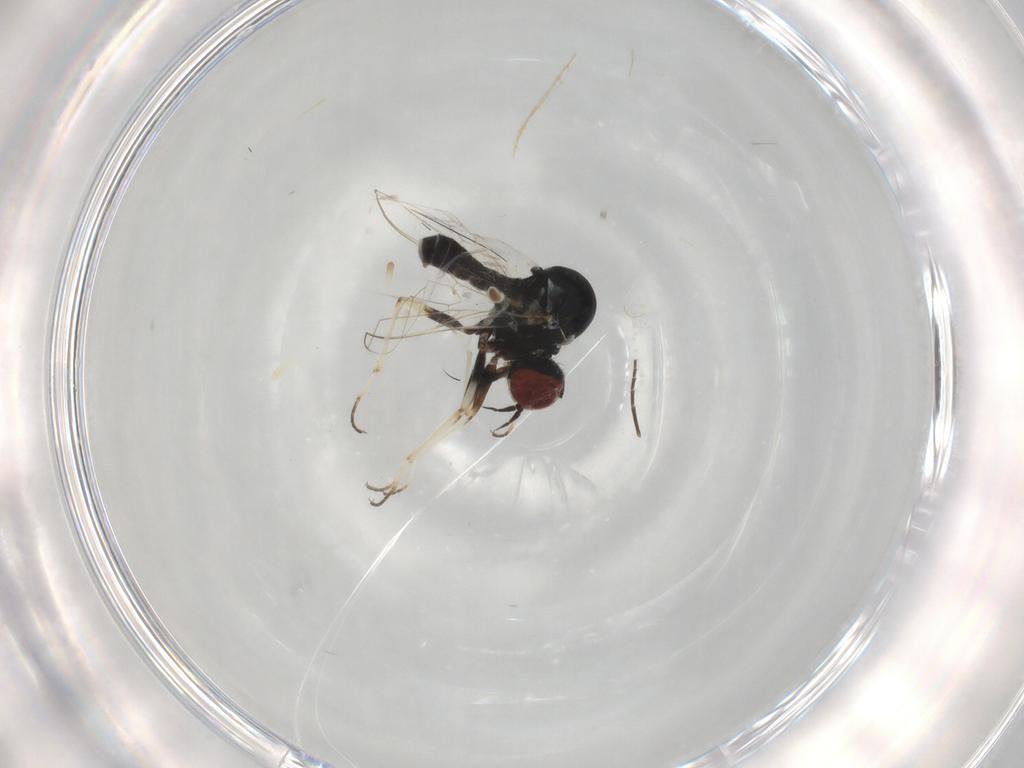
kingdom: Animalia
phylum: Arthropoda
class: Insecta
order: Diptera
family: Mythicomyiidae
